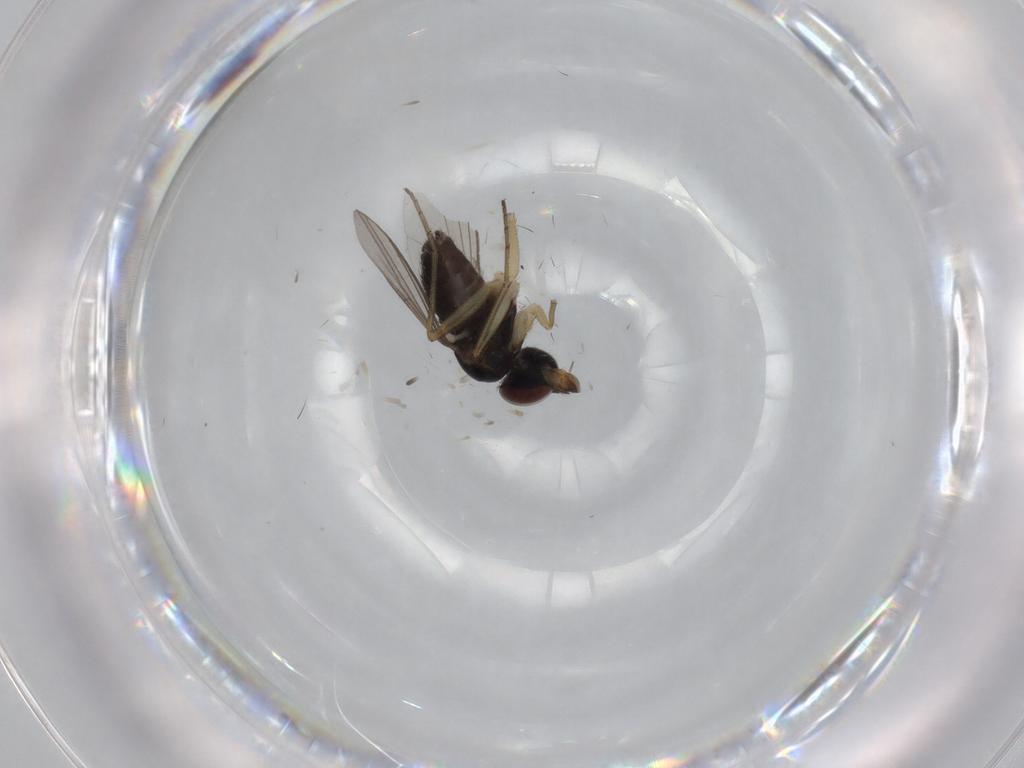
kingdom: Animalia
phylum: Arthropoda
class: Insecta
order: Diptera
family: Dolichopodidae
